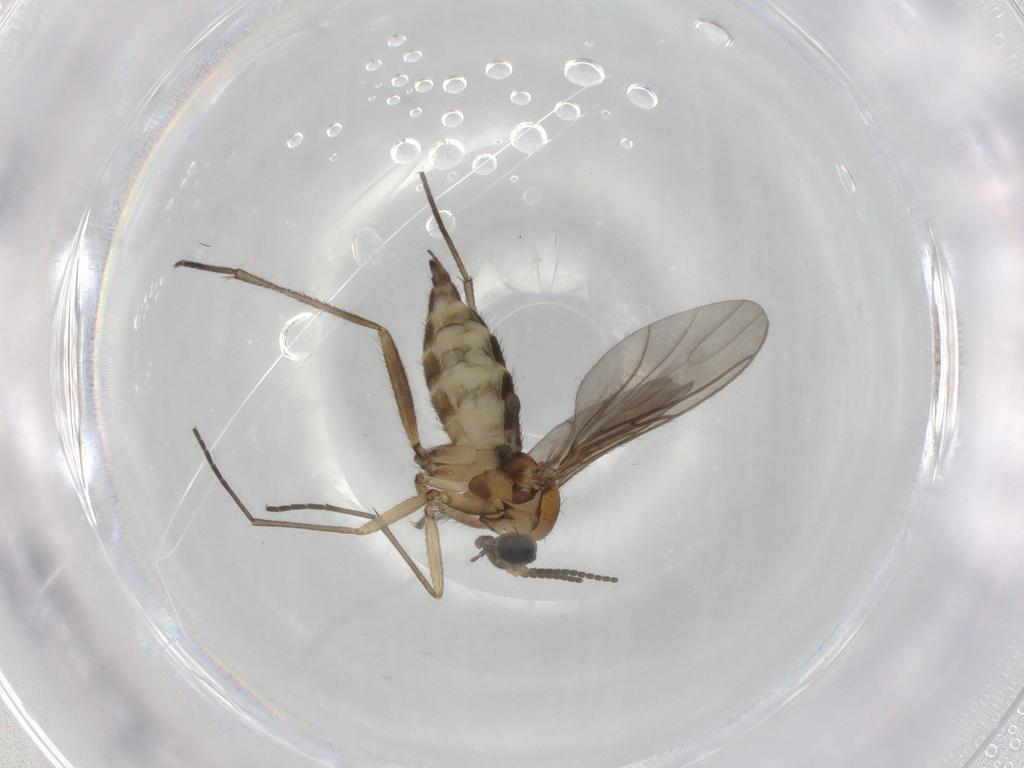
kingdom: Animalia
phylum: Arthropoda
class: Insecta
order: Diptera
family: Sciaridae
